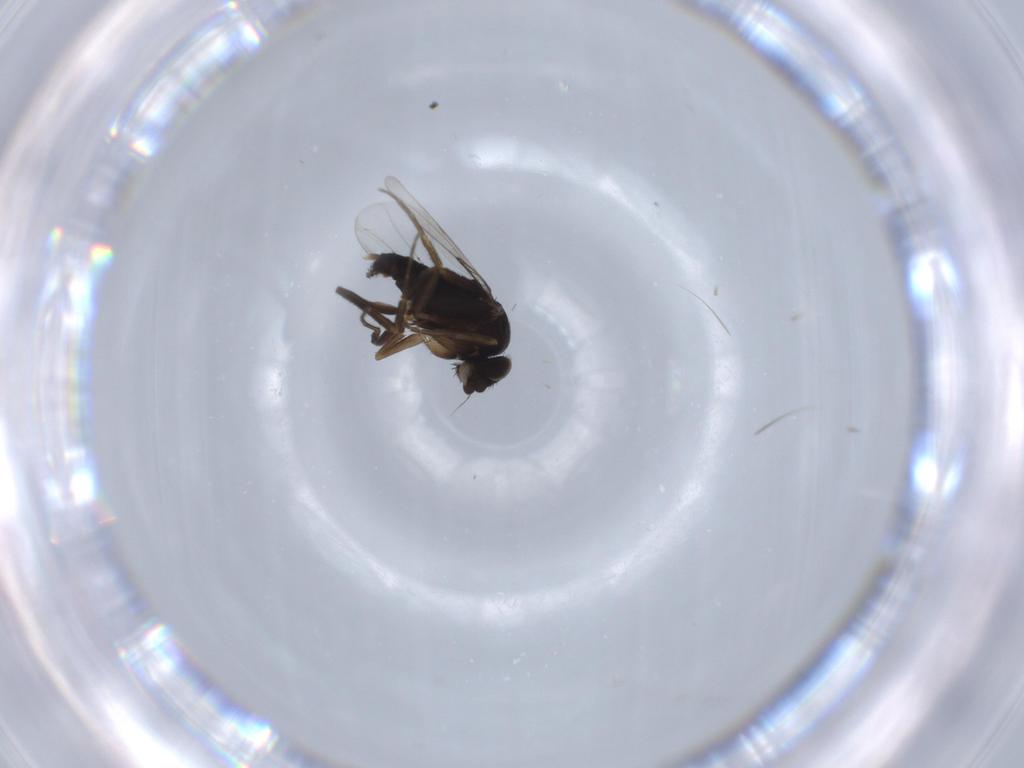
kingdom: Animalia
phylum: Arthropoda
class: Insecta
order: Diptera
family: Phoridae
